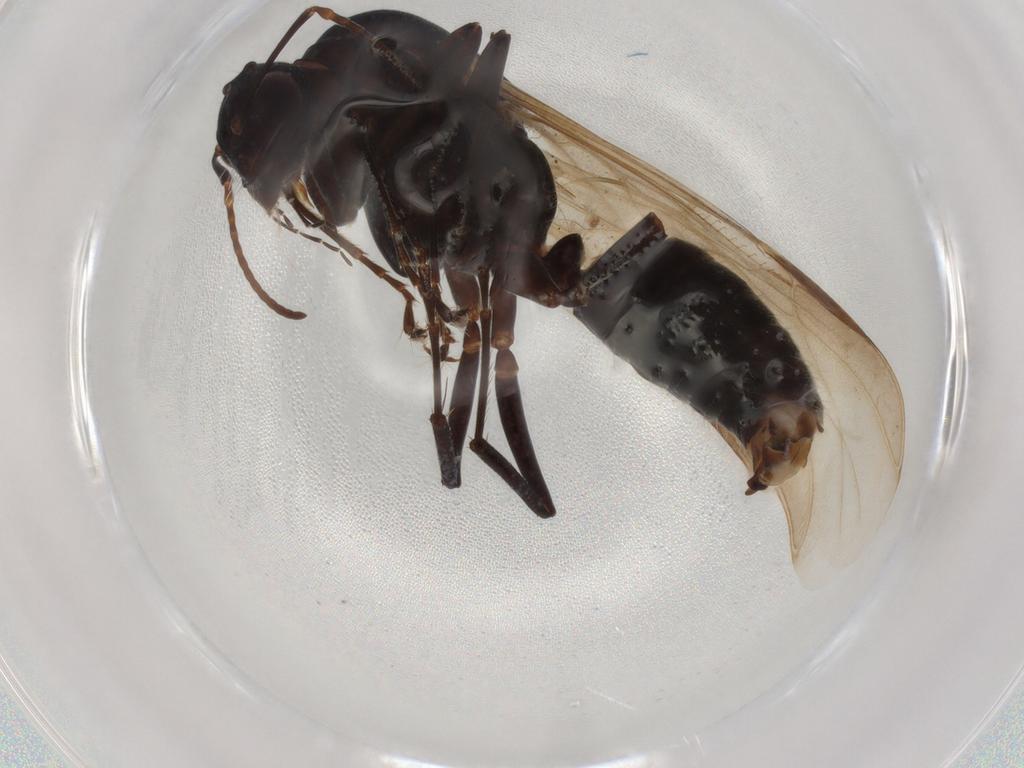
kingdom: Animalia
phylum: Arthropoda
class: Insecta
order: Hymenoptera
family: Formicidae
